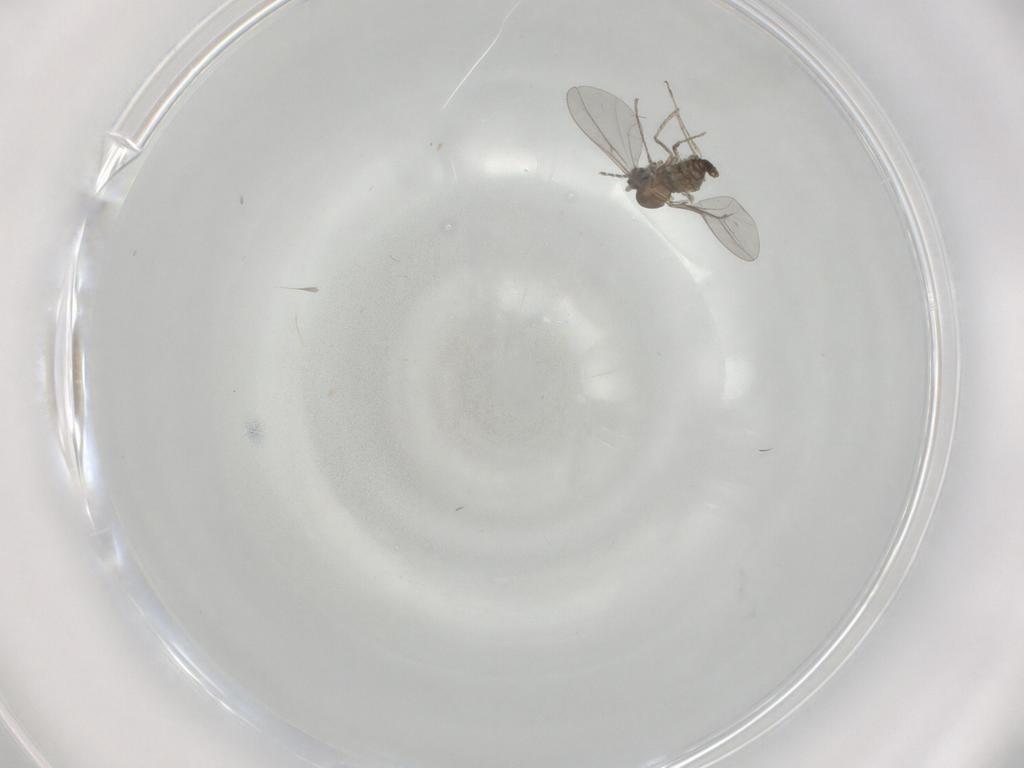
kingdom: Animalia
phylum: Arthropoda
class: Insecta
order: Diptera
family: Cecidomyiidae
